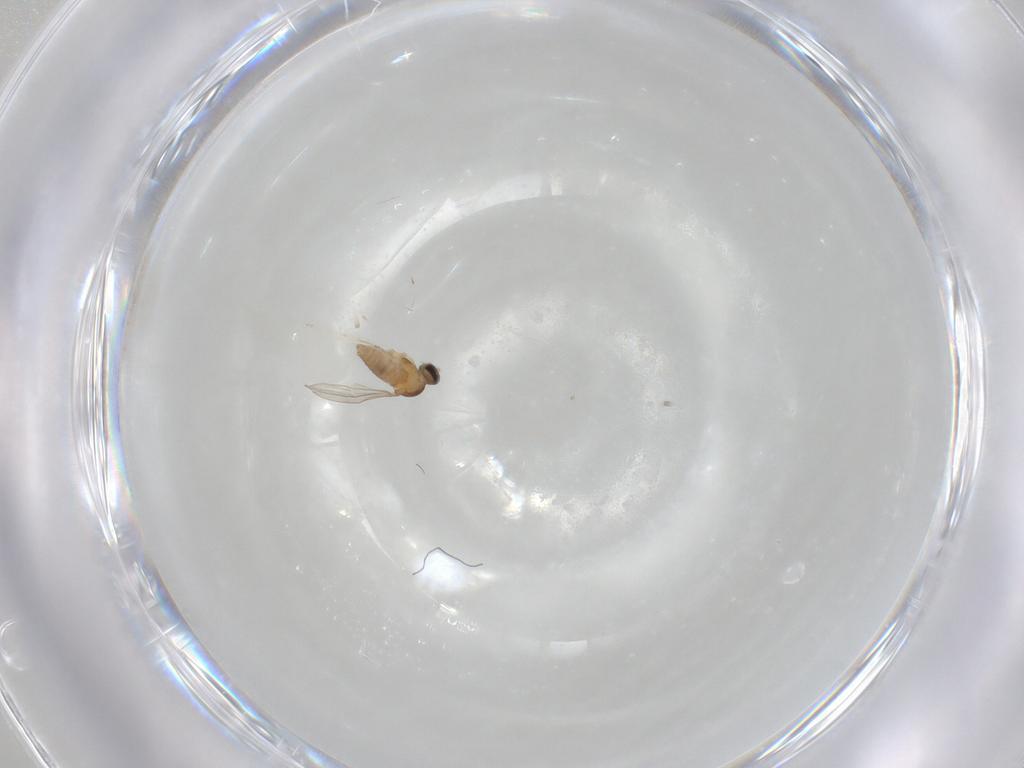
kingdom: Animalia
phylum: Arthropoda
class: Insecta
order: Diptera
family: Cecidomyiidae
